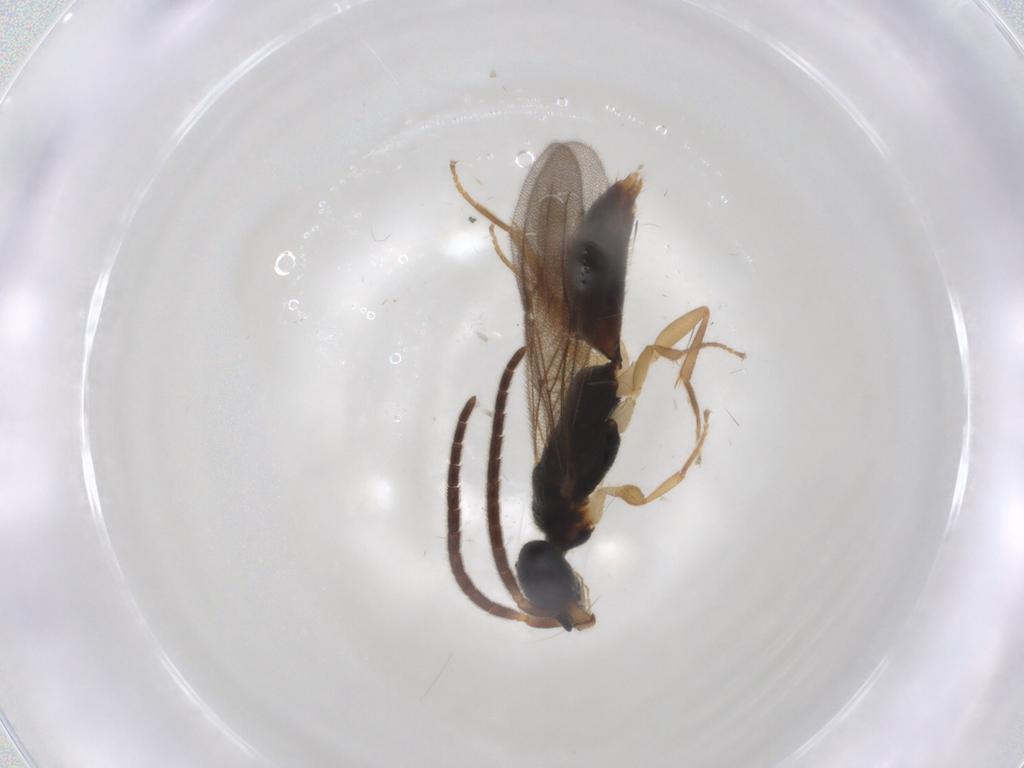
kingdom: Animalia
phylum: Arthropoda
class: Insecta
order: Hymenoptera
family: Bethylidae
